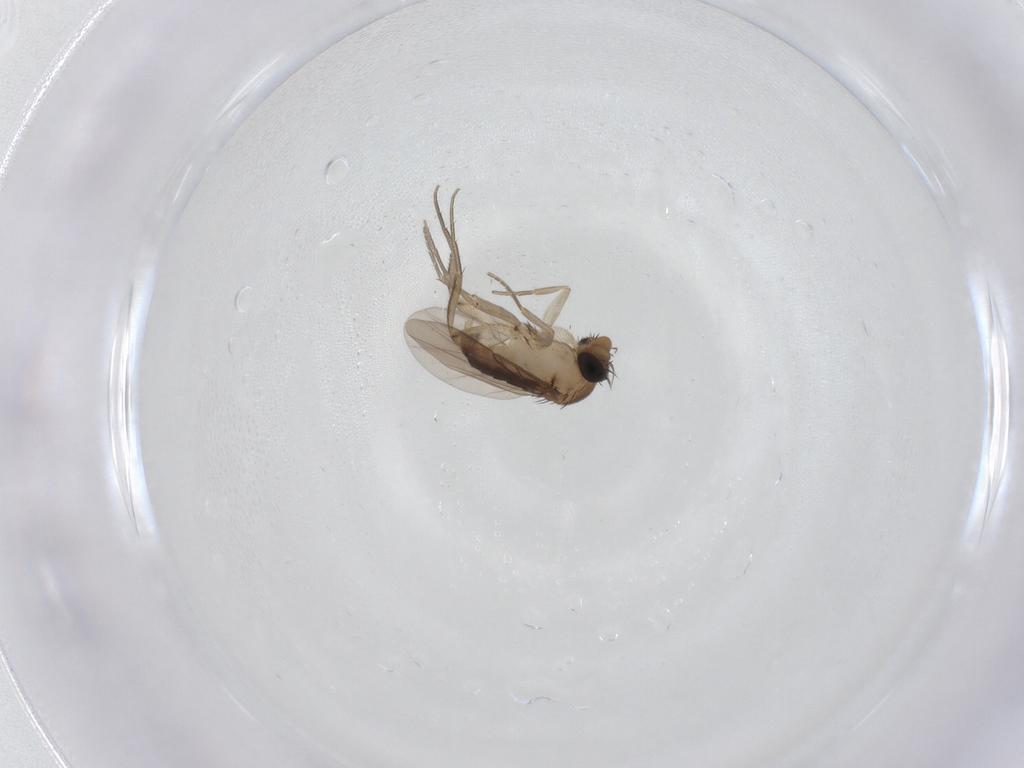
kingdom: Animalia
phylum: Arthropoda
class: Insecta
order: Diptera
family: Phoridae
